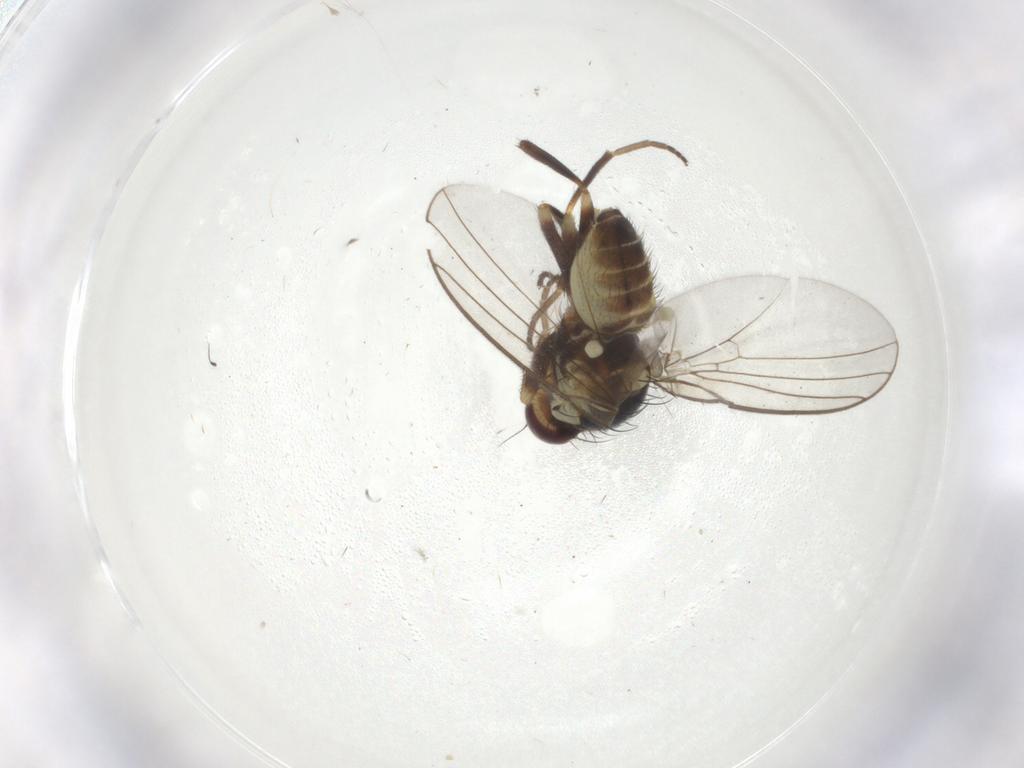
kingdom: Animalia
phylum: Arthropoda
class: Insecta
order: Diptera
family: Agromyzidae
